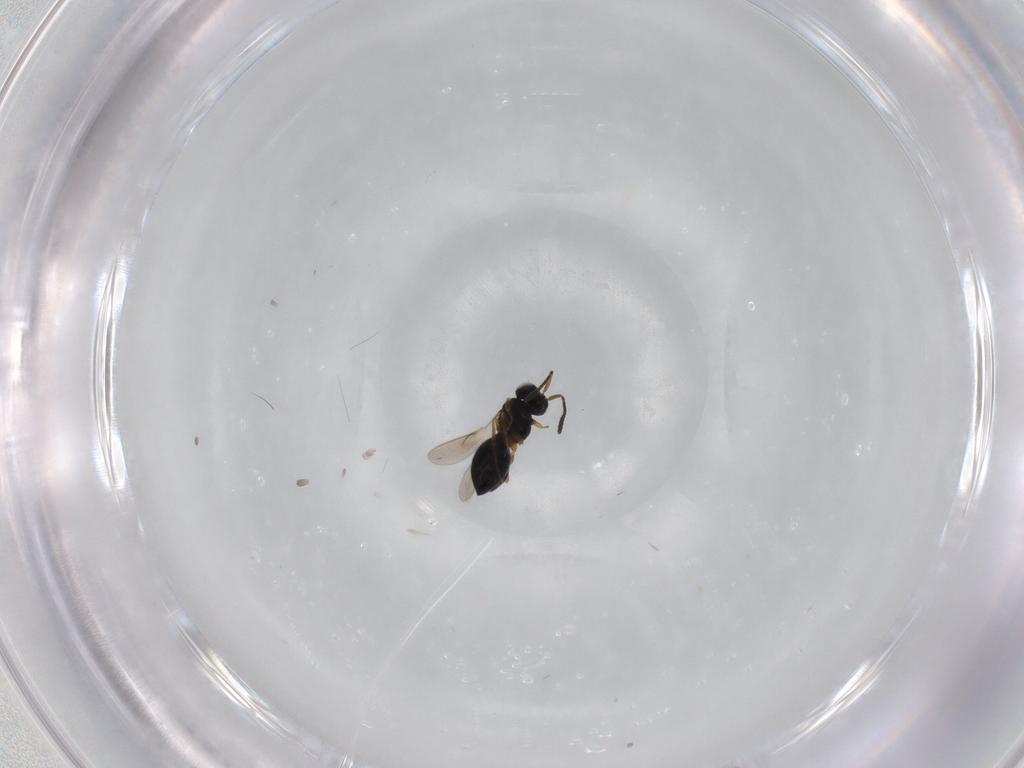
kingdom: Animalia
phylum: Arthropoda
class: Insecta
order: Hymenoptera
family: Scelionidae
